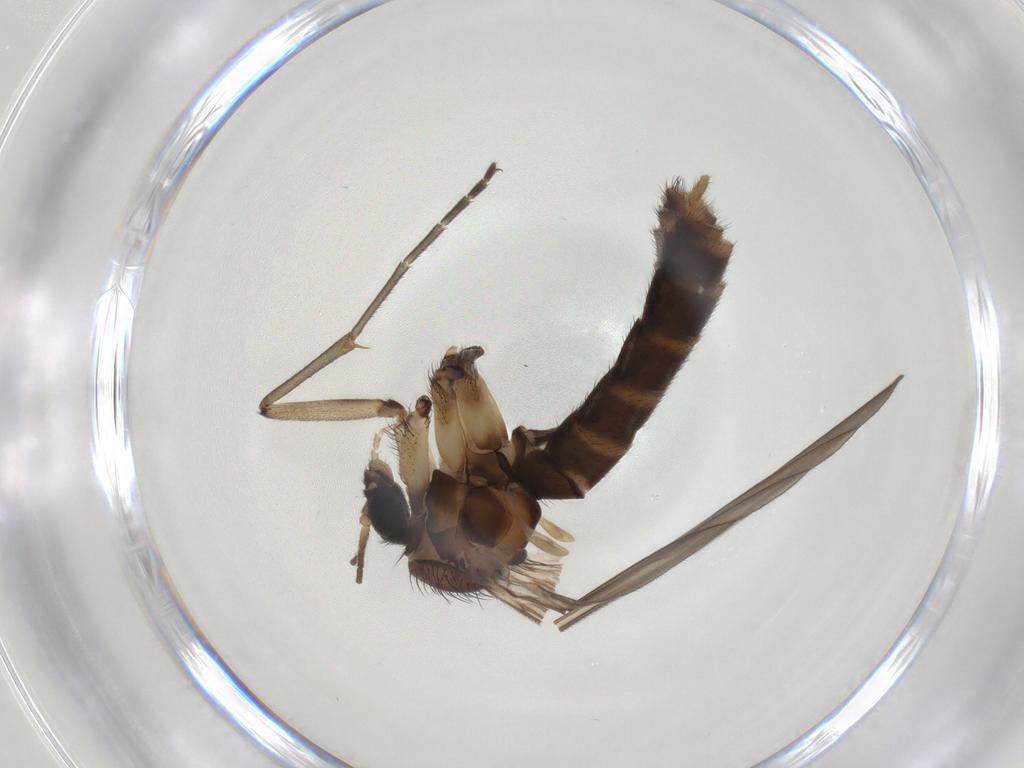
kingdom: Animalia
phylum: Arthropoda
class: Insecta
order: Diptera
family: Mycetophilidae
